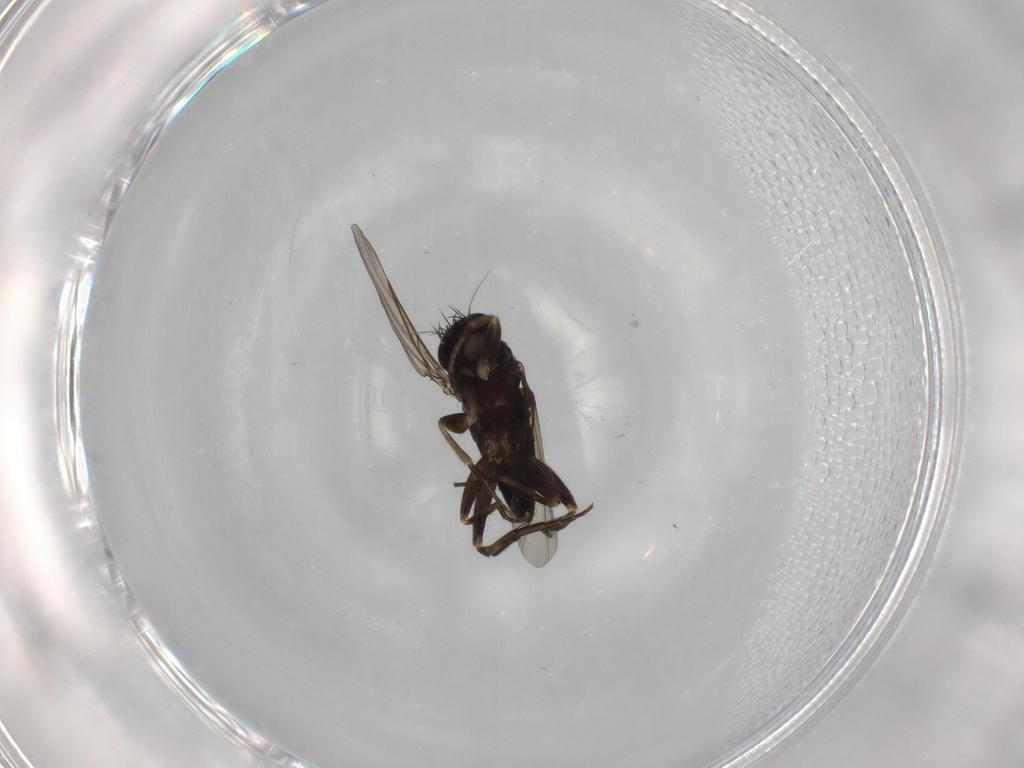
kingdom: Animalia
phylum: Arthropoda
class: Insecta
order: Diptera
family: Phoridae
